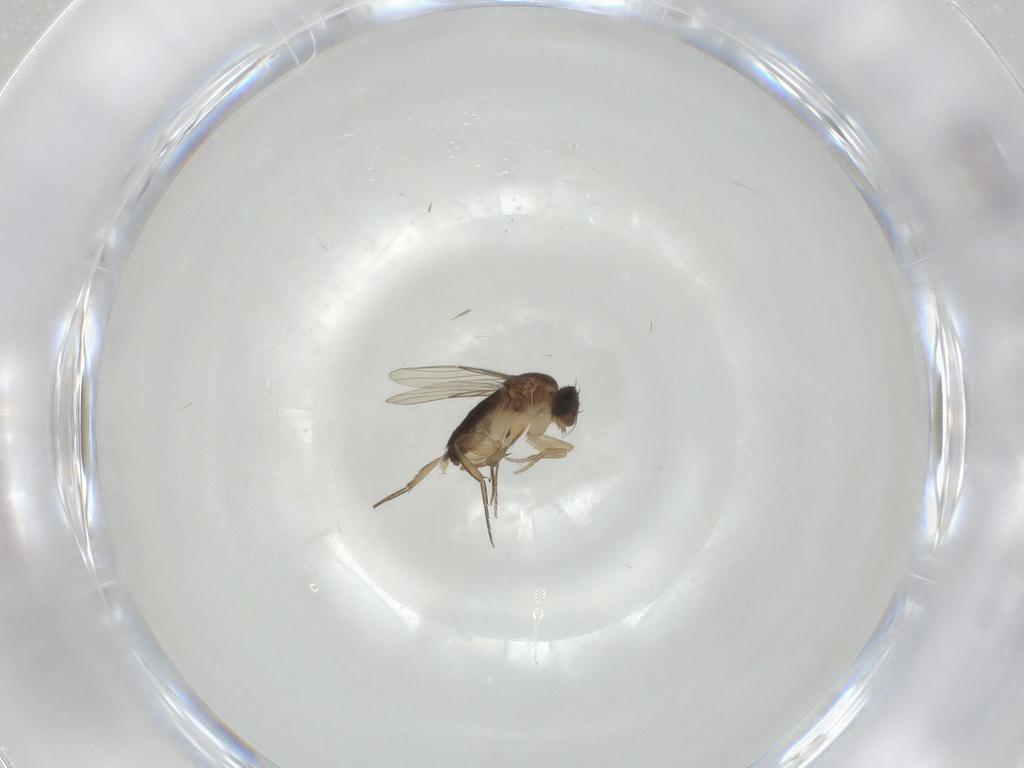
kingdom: Animalia
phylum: Arthropoda
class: Insecta
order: Diptera
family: Phoridae
